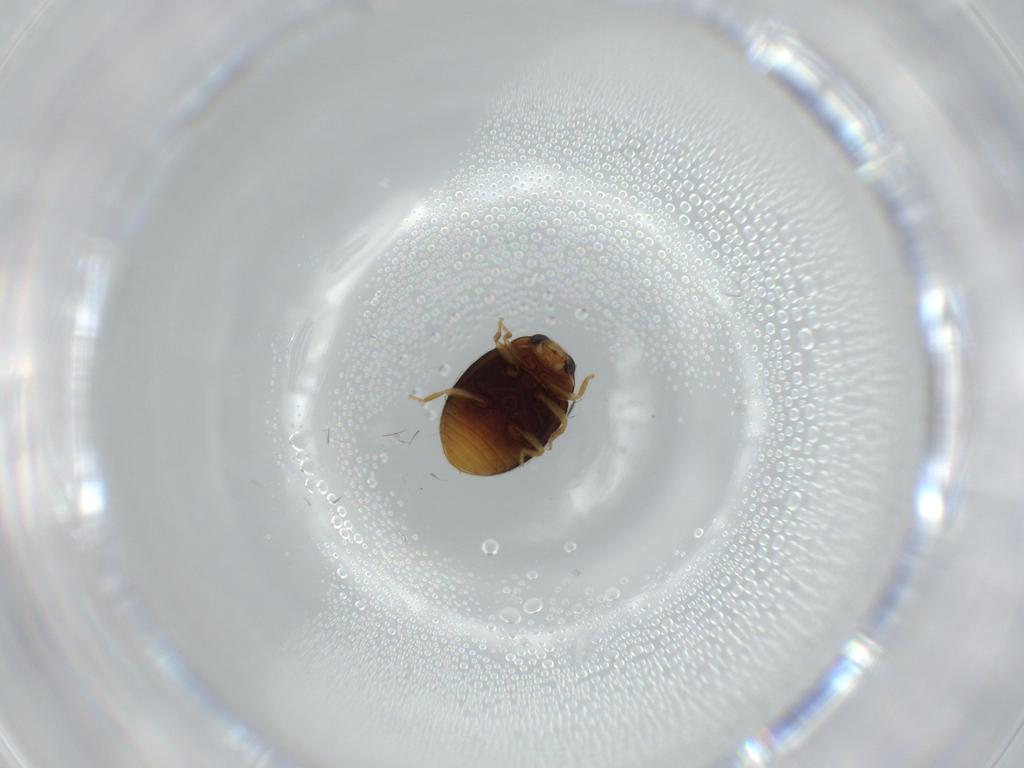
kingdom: Animalia
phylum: Arthropoda
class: Insecta
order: Coleoptera
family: Coccinellidae
